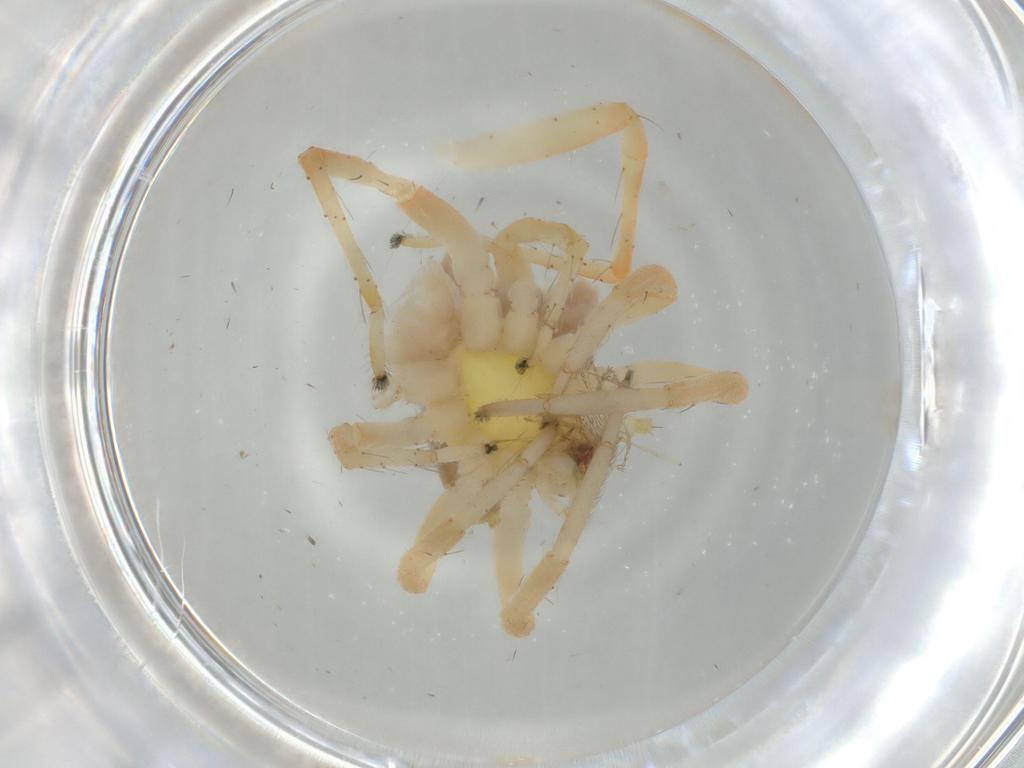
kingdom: Animalia
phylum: Arthropoda
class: Arachnida
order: Araneae
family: Anyphaenidae
